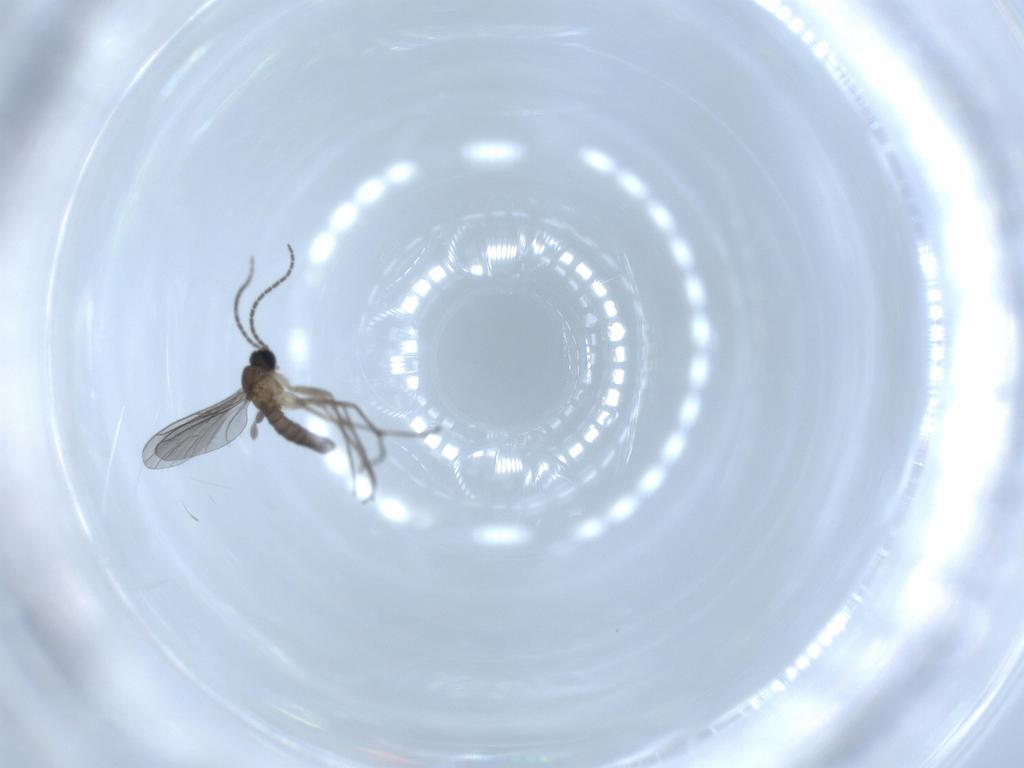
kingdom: Animalia
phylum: Arthropoda
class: Insecta
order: Diptera
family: Sciaridae
